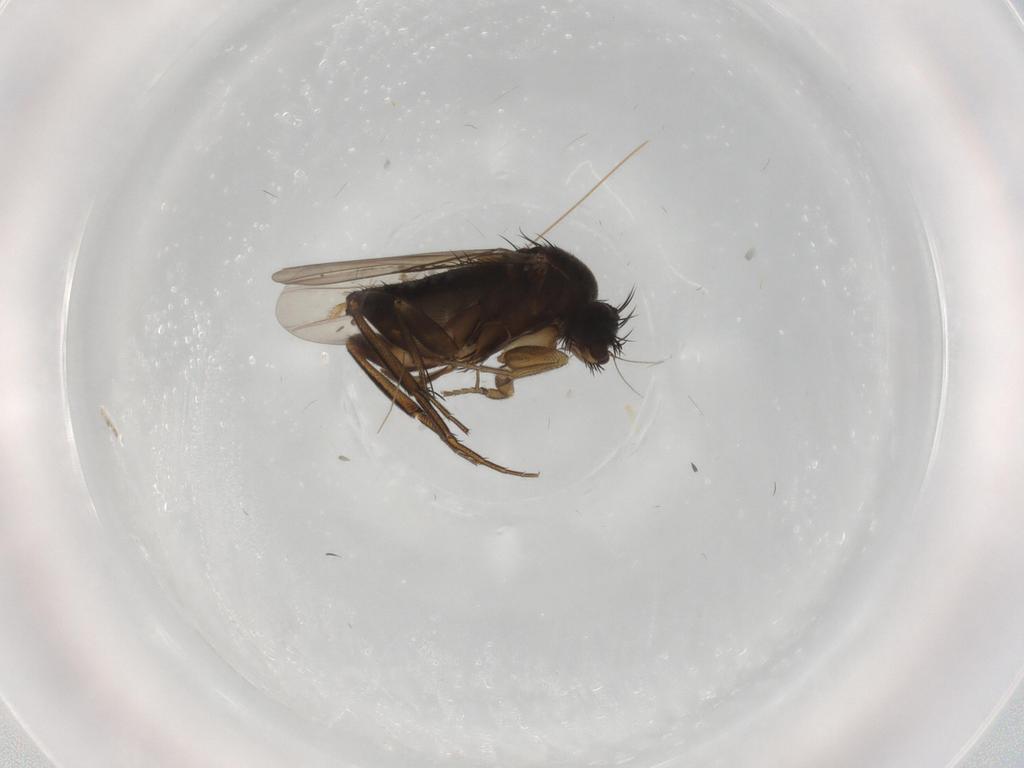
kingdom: Animalia
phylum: Arthropoda
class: Insecta
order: Diptera
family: Phoridae
